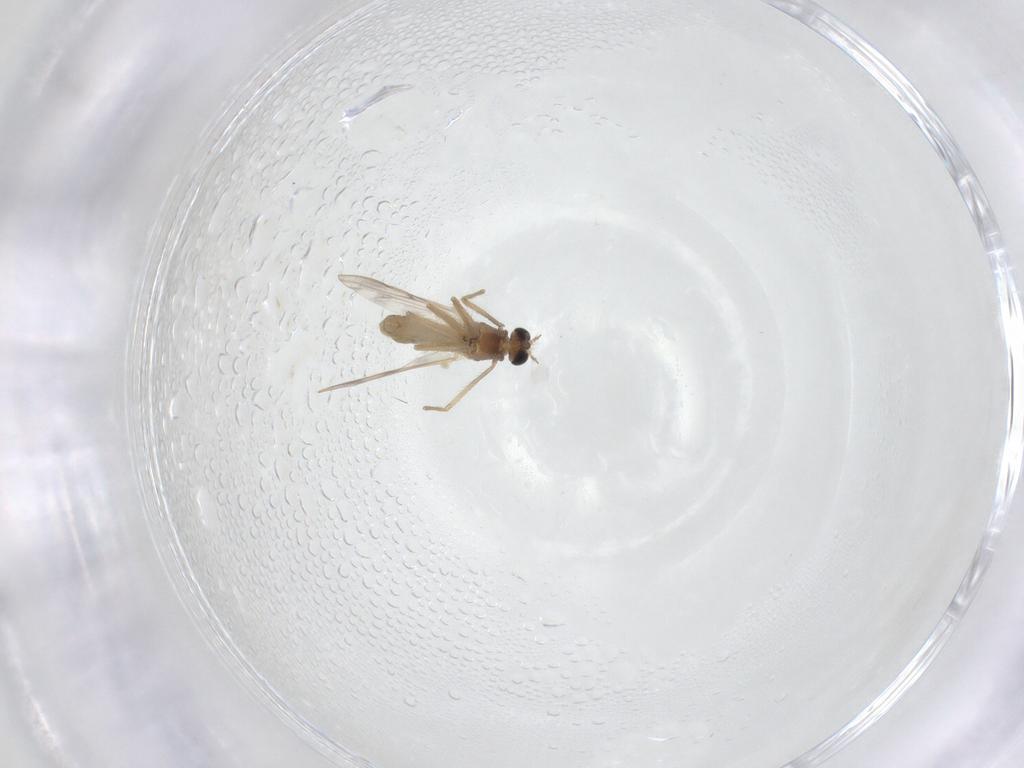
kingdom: Animalia
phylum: Arthropoda
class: Insecta
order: Diptera
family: Chironomidae
